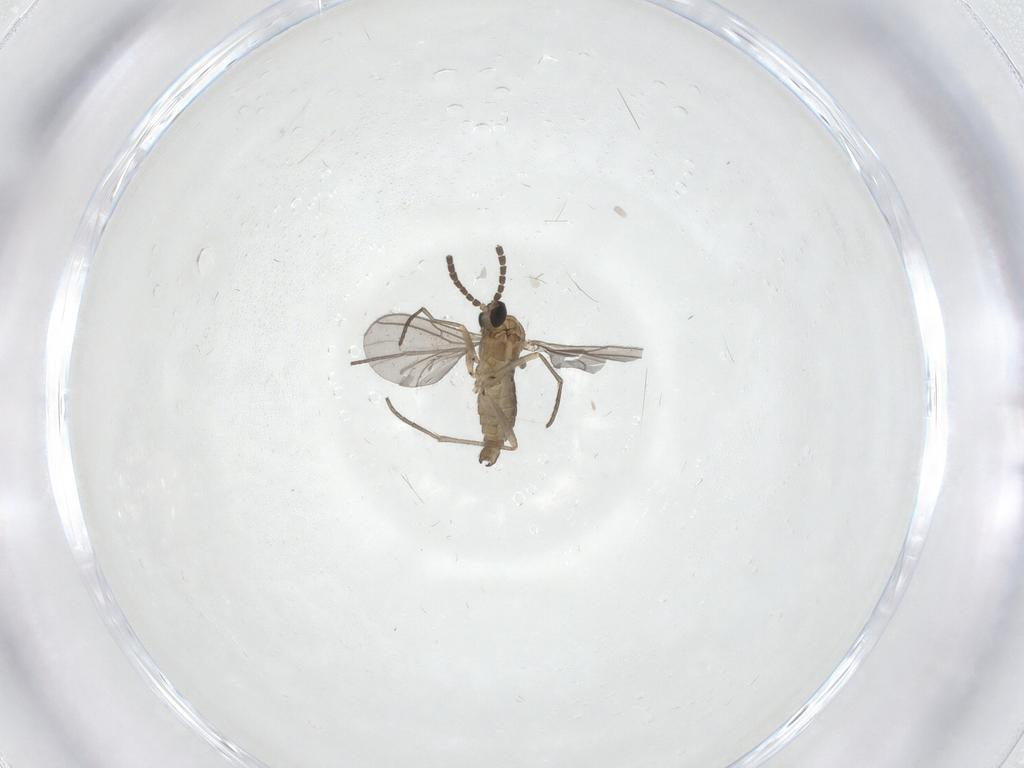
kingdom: Animalia
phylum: Arthropoda
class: Insecta
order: Diptera
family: Sciaridae
